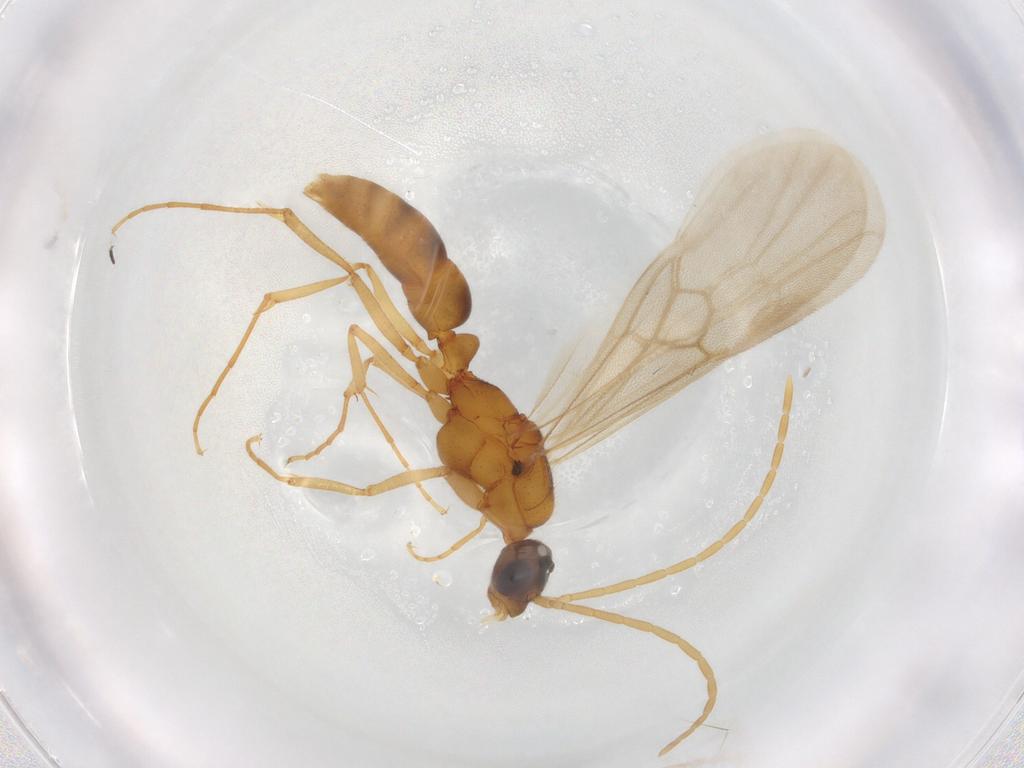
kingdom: Animalia
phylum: Arthropoda
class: Insecta
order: Hymenoptera
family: Formicidae
